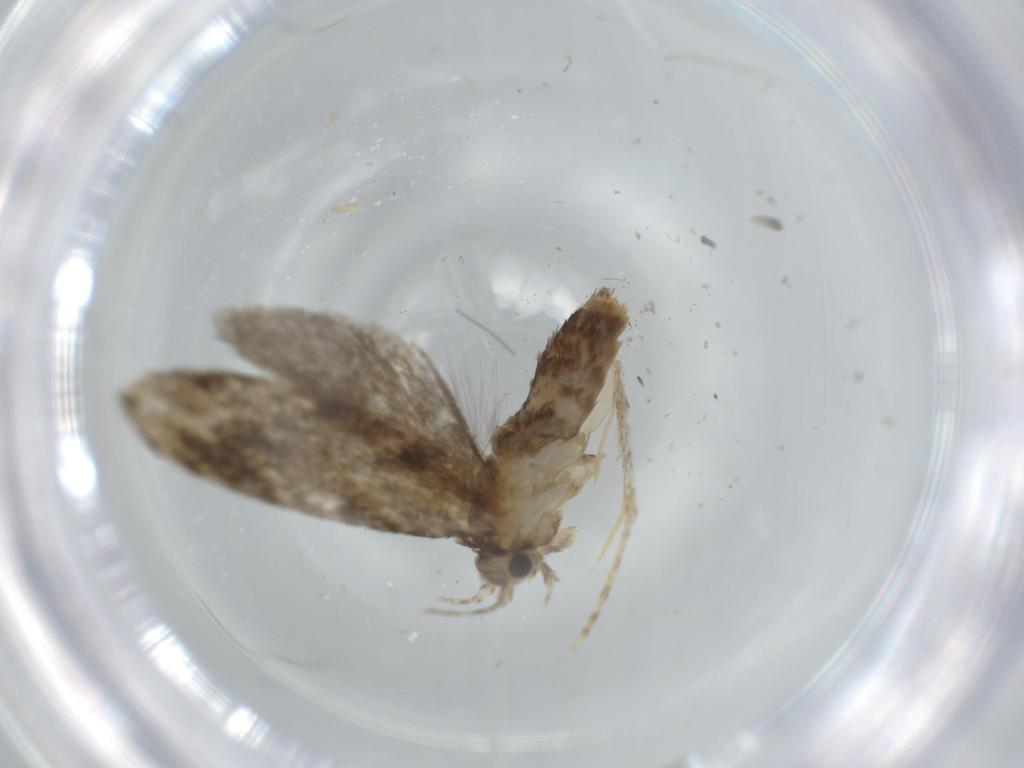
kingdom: Animalia
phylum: Arthropoda
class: Insecta
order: Lepidoptera
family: Tineidae
